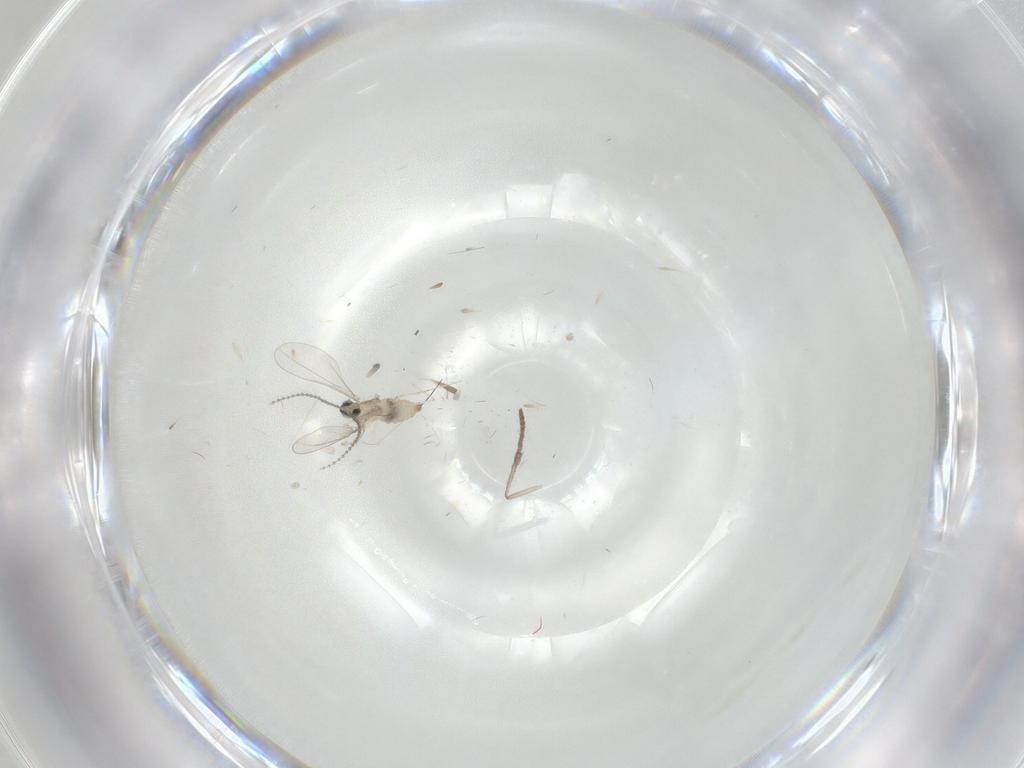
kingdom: Animalia
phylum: Arthropoda
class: Insecta
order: Diptera
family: Cecidomyiidae
